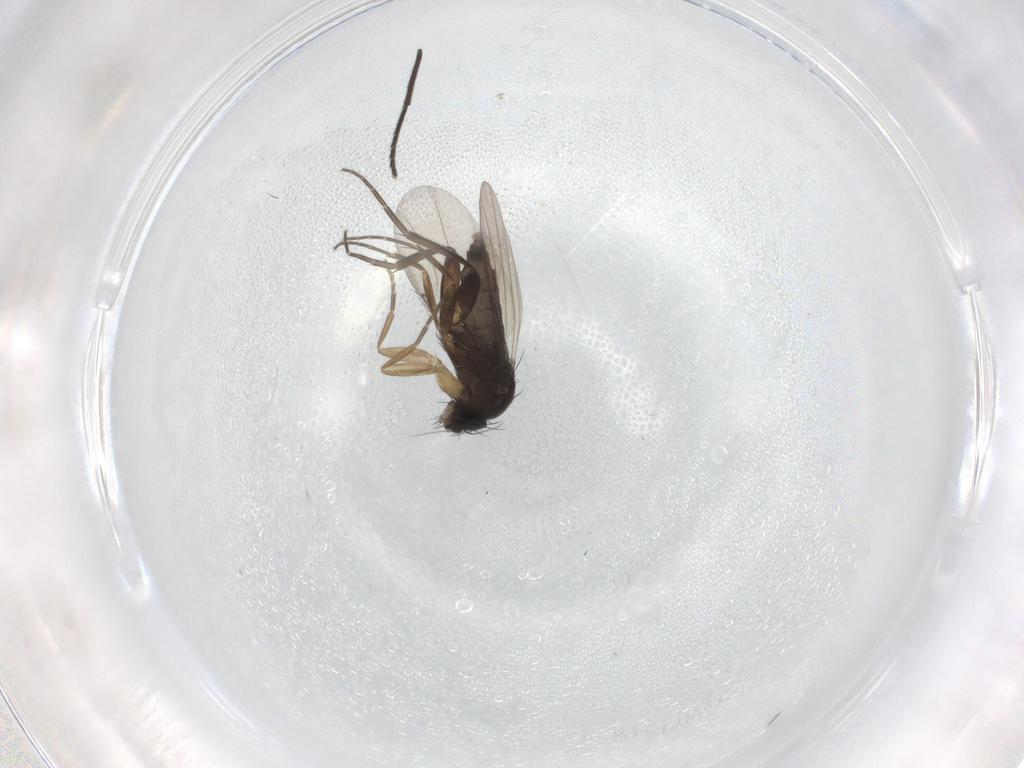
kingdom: Animalia
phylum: Arthropoda
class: Insecta
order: Diptera
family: Phoridae
